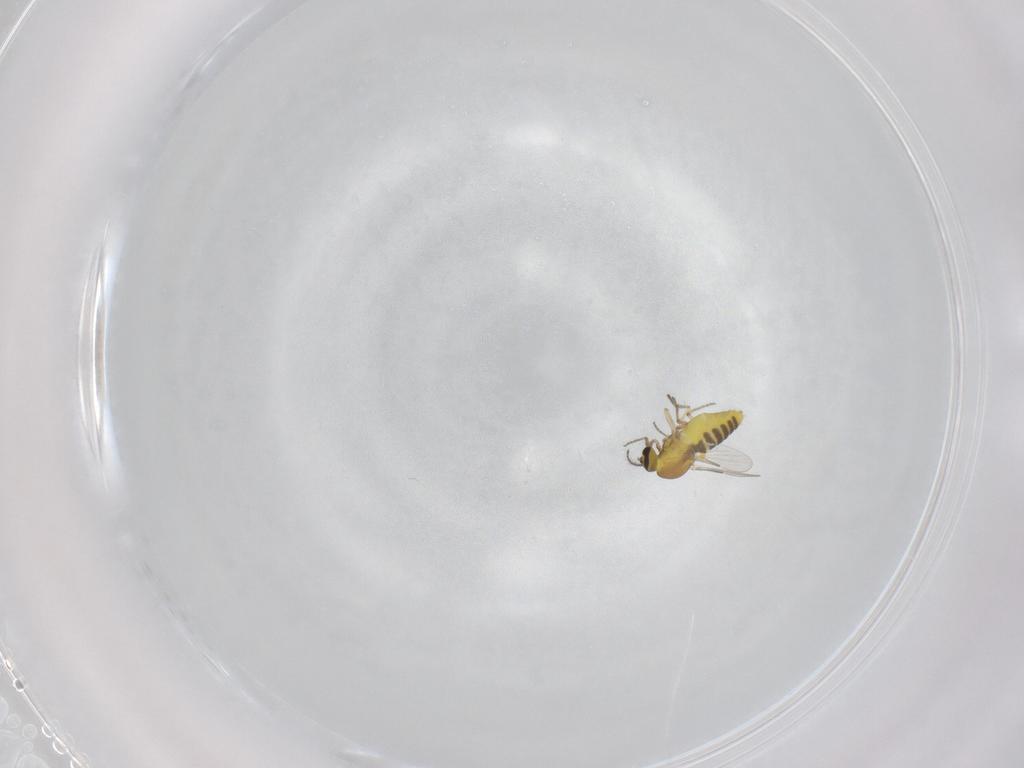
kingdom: Animalia
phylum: Arthropoda
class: Insecta
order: Diptera
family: Ceratopogonidae
